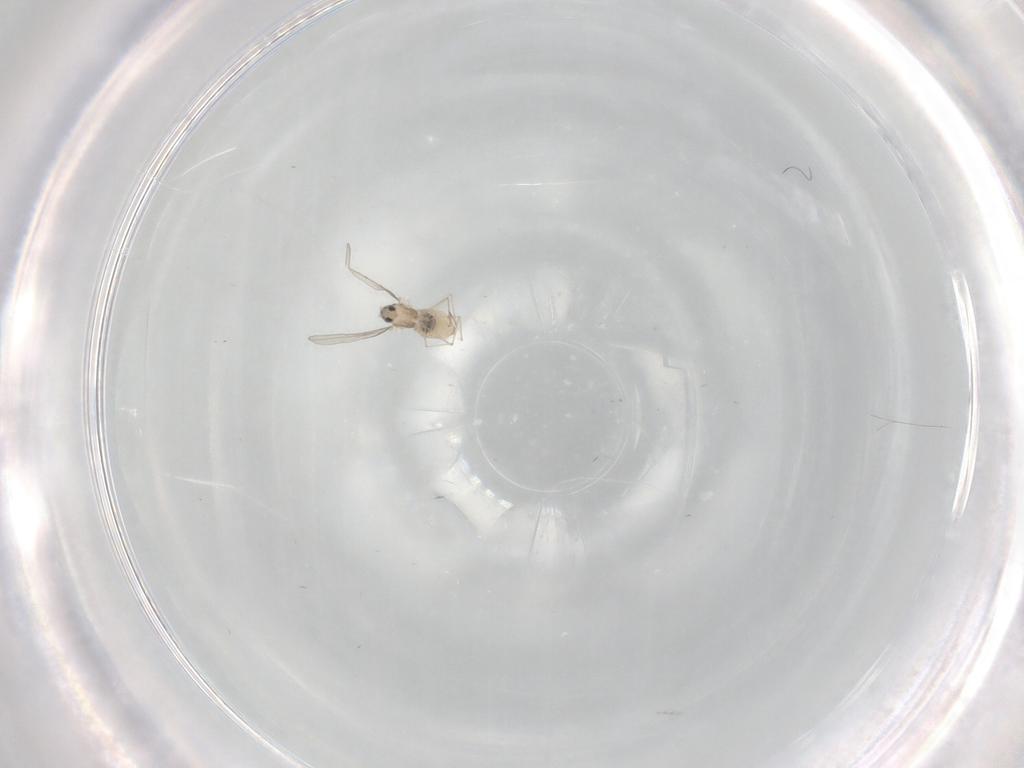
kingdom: Animalia
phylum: Arthropoda
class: Insecta
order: Diptera
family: Cecidomyiidae
